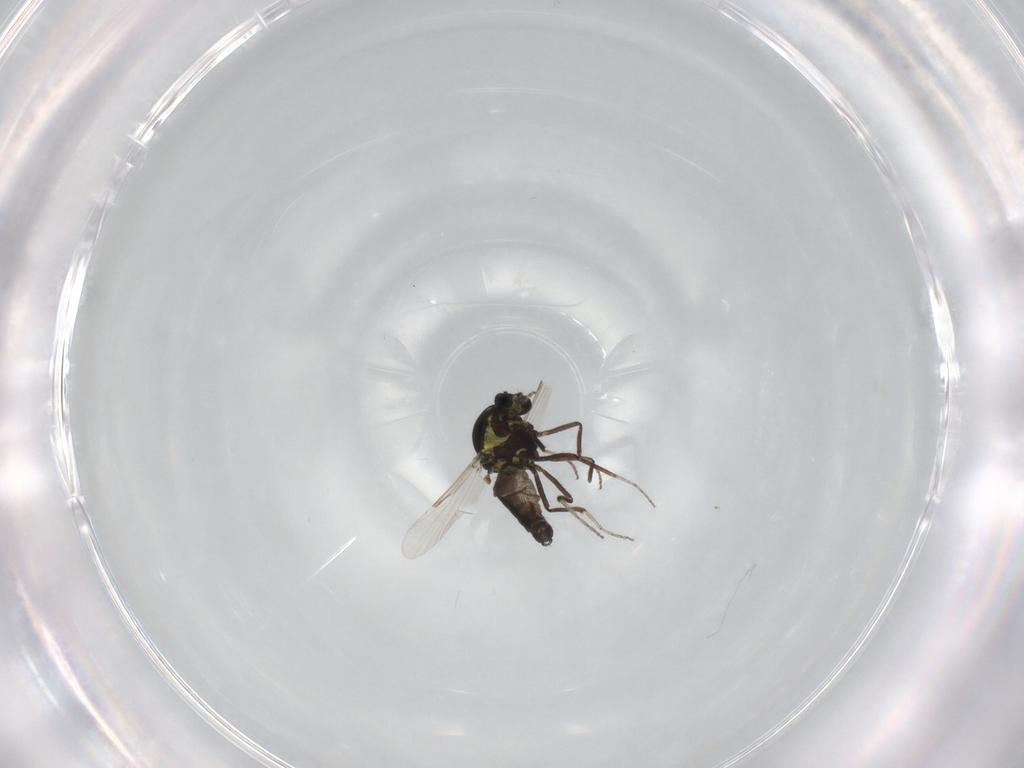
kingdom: Animalia
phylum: Arthropoda
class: Insecta
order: Diptera
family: Ceratopogonidae
